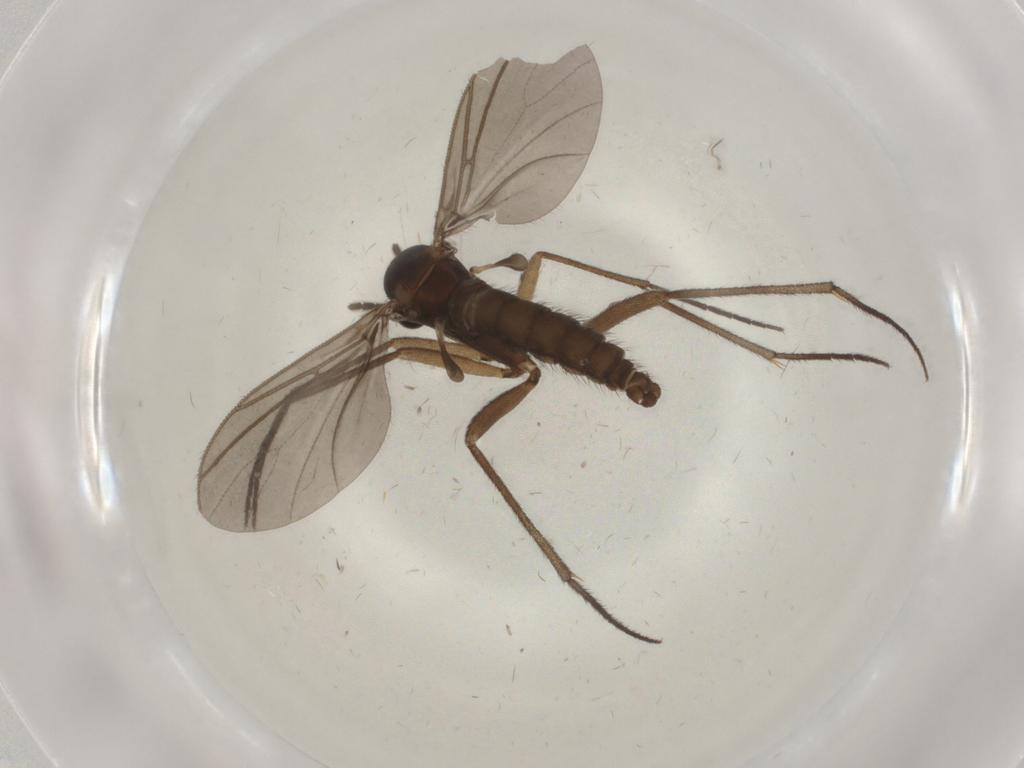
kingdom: Animalia
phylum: Arthropoda
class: Insecta
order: Diptera
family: Sciaridae
